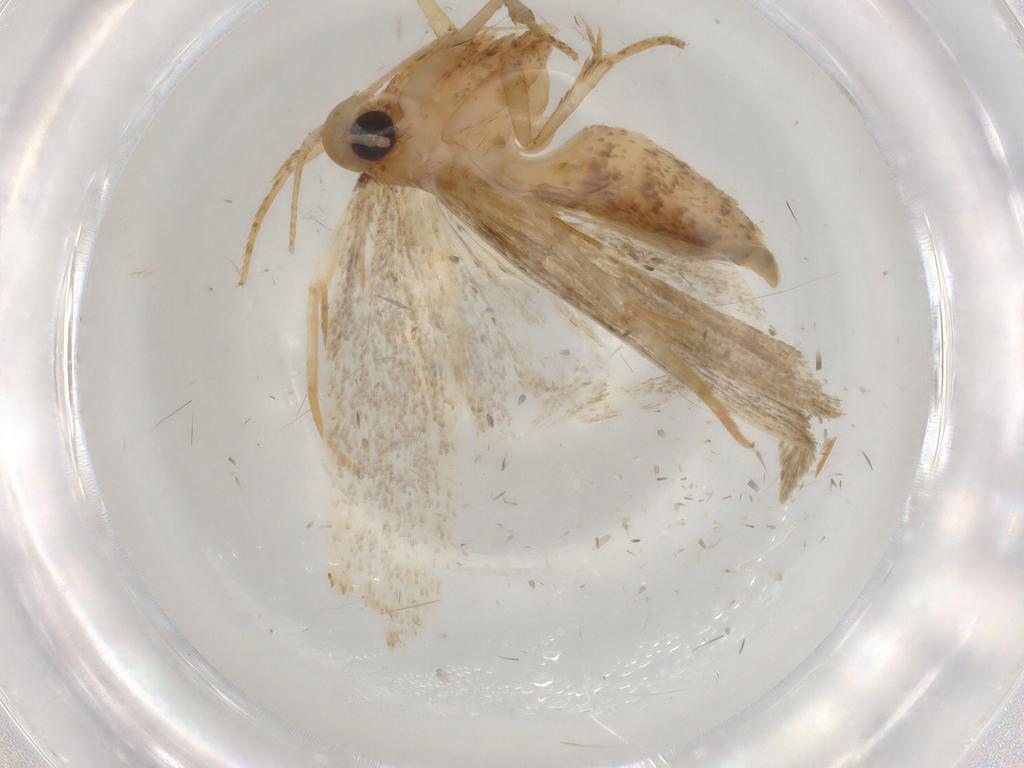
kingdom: Animalia
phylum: Arthropoda
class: Insecta
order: Lepidoptera
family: Autostichidae
